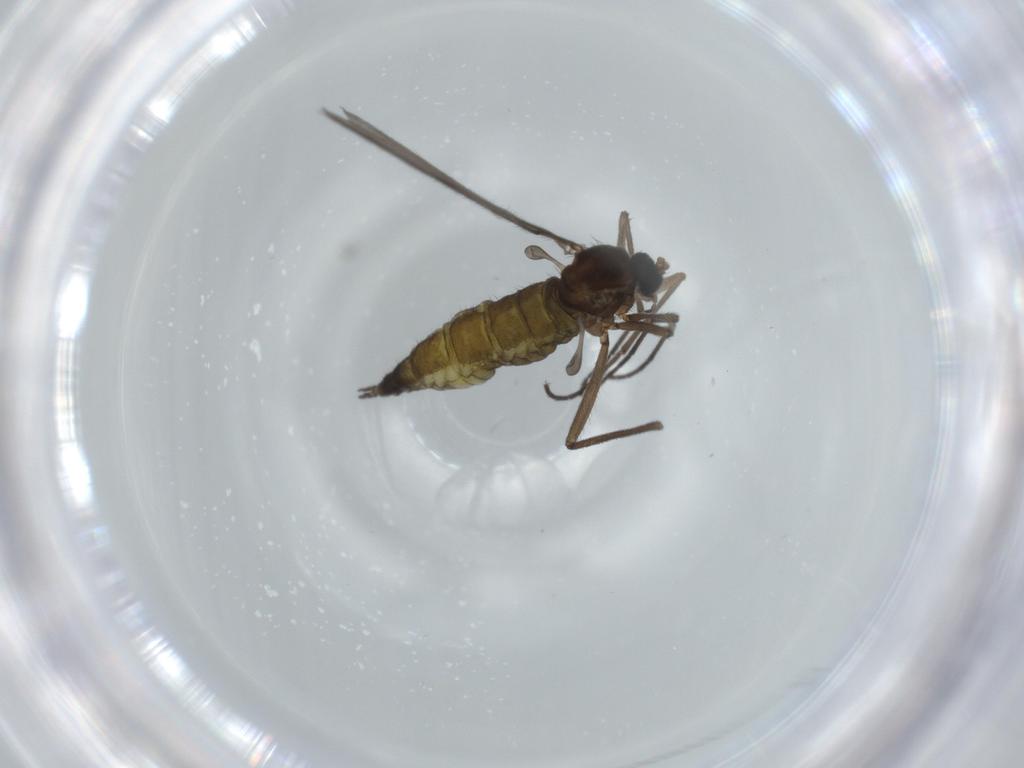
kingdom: Animalia
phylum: Arthropoda
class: Insecta
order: Diptera
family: Sciaridae
